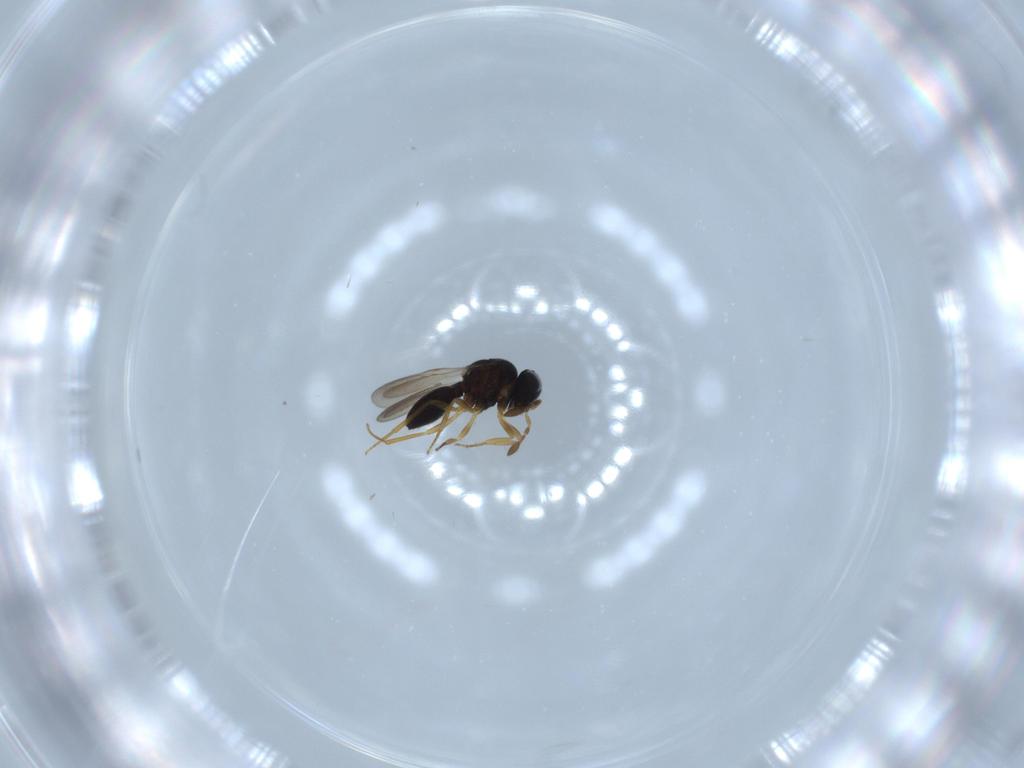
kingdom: Animalia
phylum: Arthropoda
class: Insecta
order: Hymenoptera
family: Scelionidae
